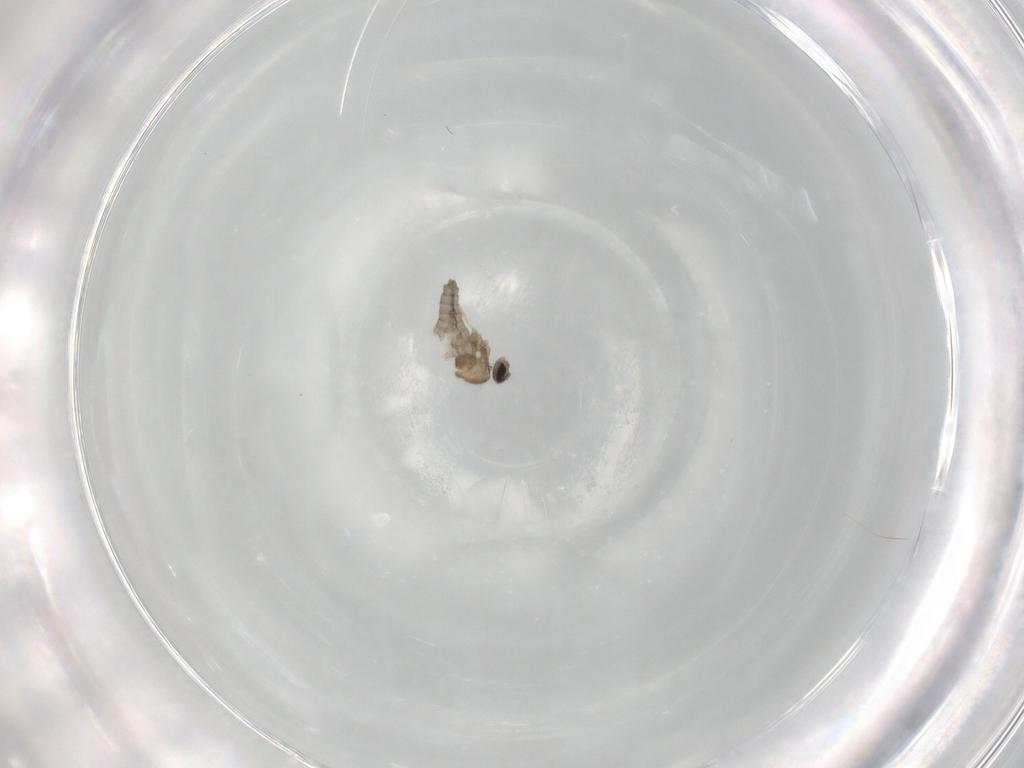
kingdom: Animalia
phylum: Arthropoda
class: Insecta
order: Diptera
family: Cecidomyiidae
